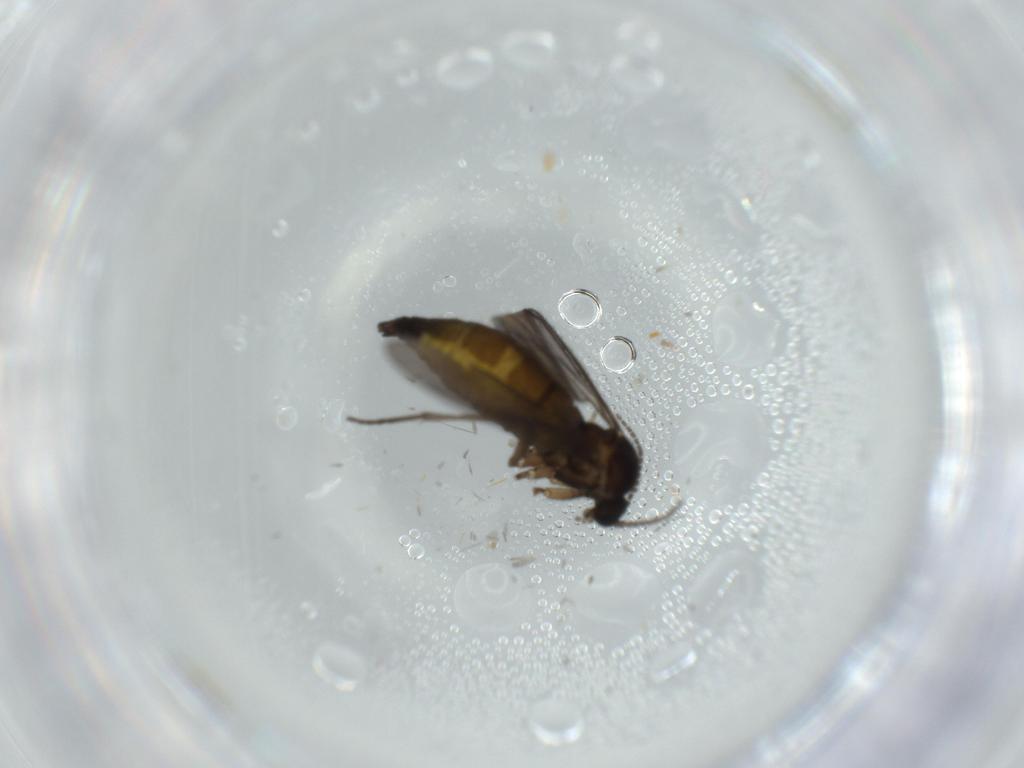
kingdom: Animalia
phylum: Arthropoda
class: Insecta
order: Diptera
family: Sciaridae
